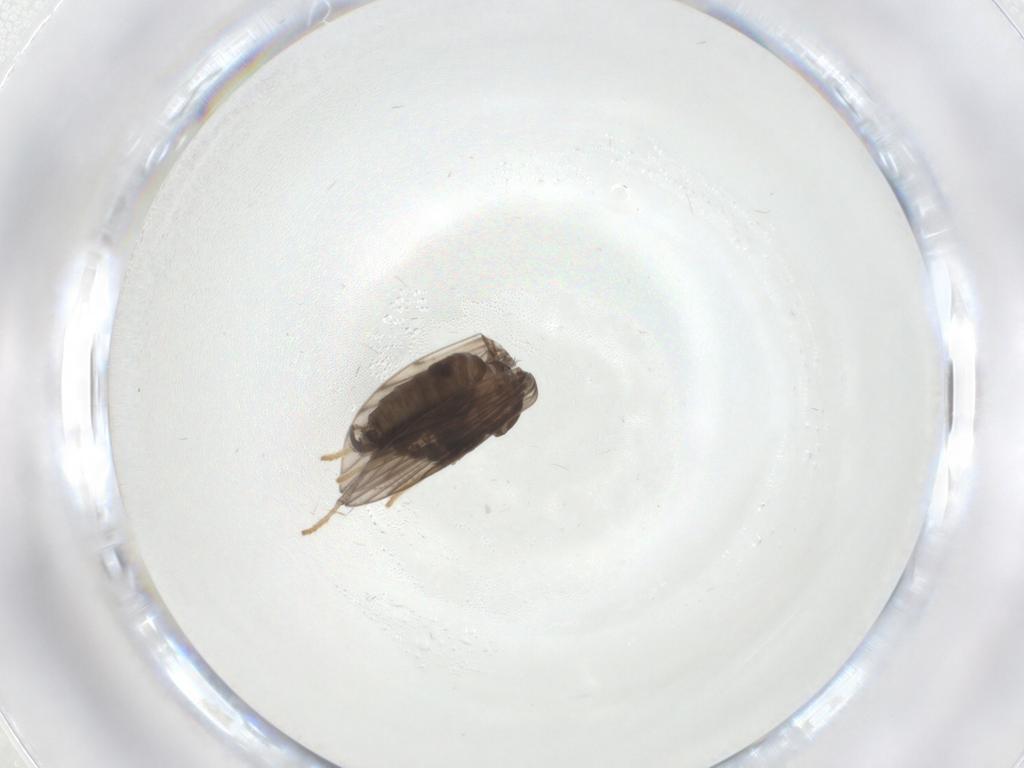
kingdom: Animalia
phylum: Arthropoda
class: Insecta
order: Diptera
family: Psychodidae
